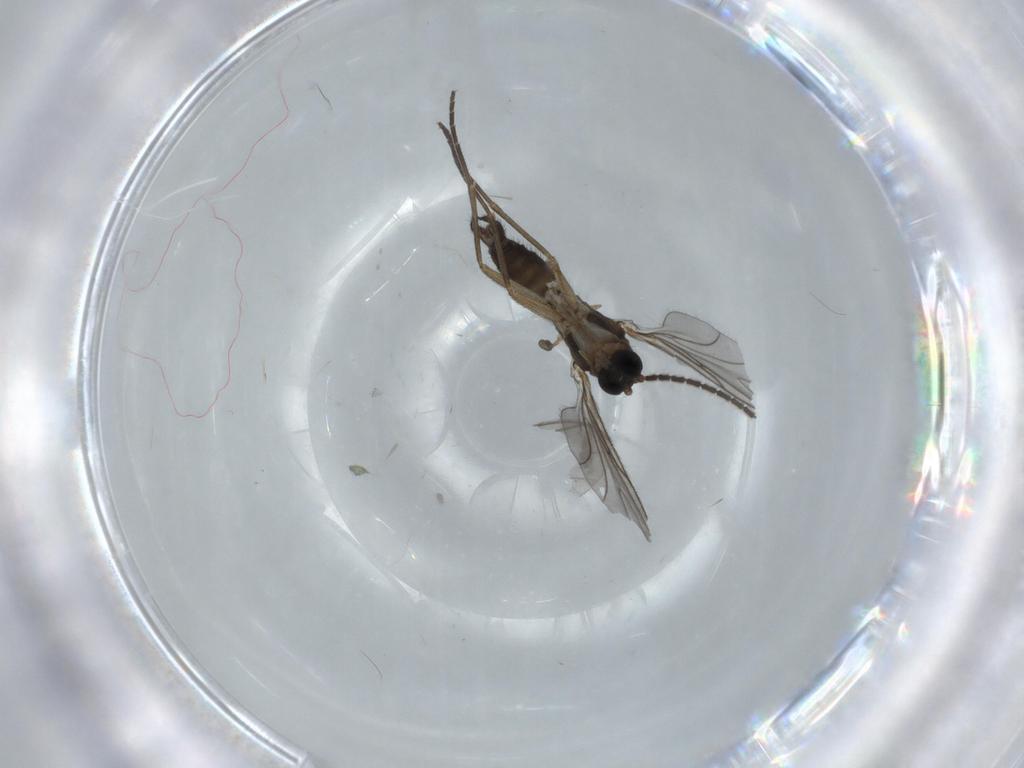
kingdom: Animalia
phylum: Arthropoda
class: Insecta
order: Diptera
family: Sciaridae
